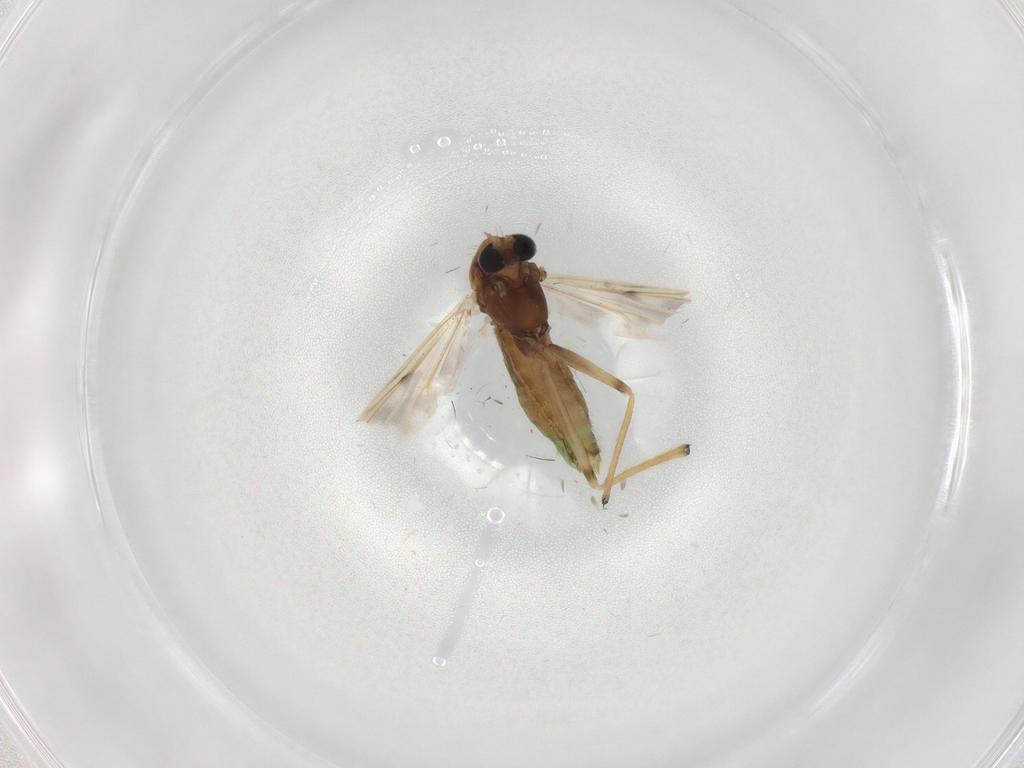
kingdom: Animalia
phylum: Arthropoda
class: Insecta
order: Diptera
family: Chironomidae
